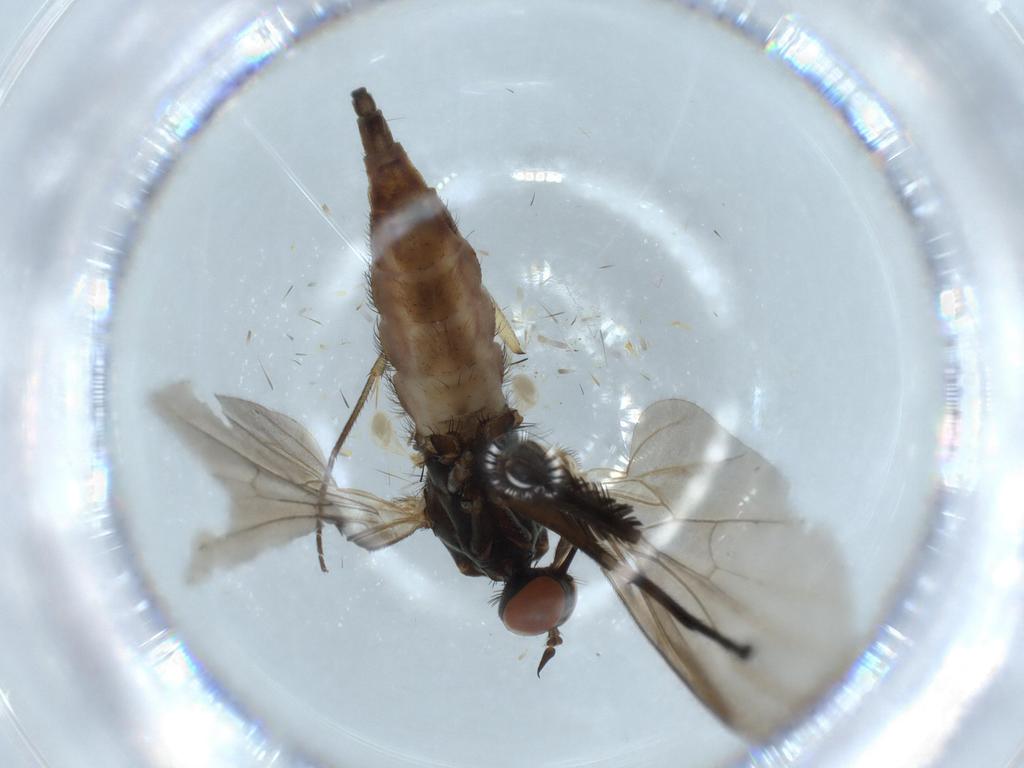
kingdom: Animalia
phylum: Arthropoda
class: Insecta
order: Diptera
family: Empididae
